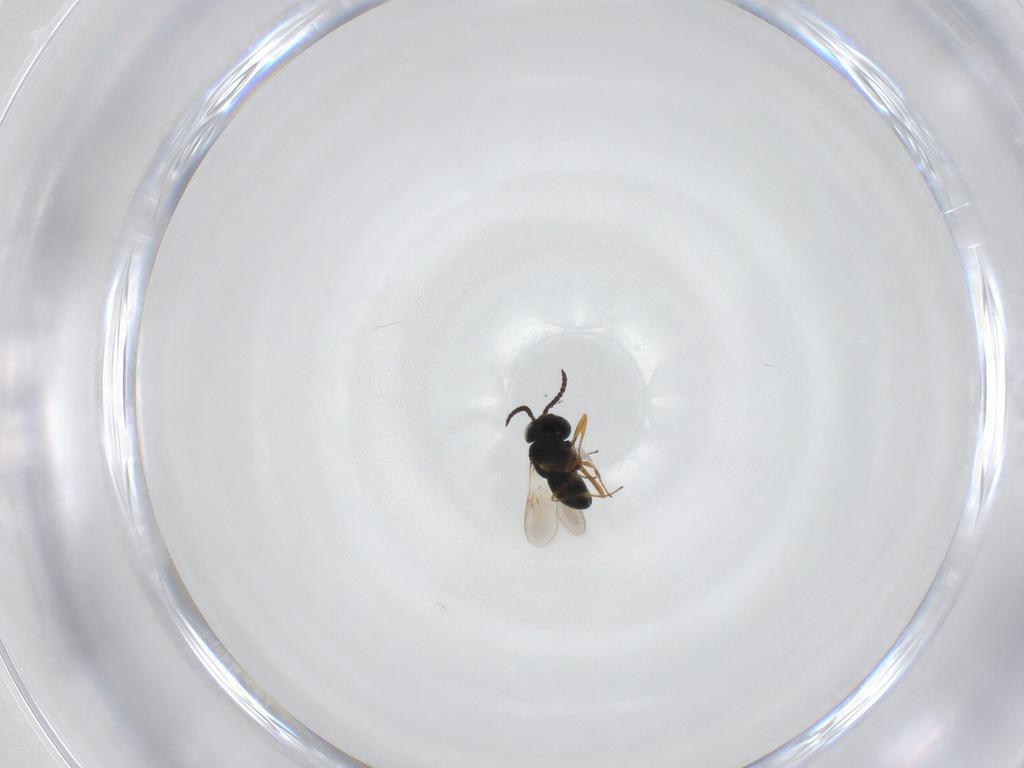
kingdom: Animalia
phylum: Arthropoda
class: Insecta
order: Hymenoptera
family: Scelionidae
